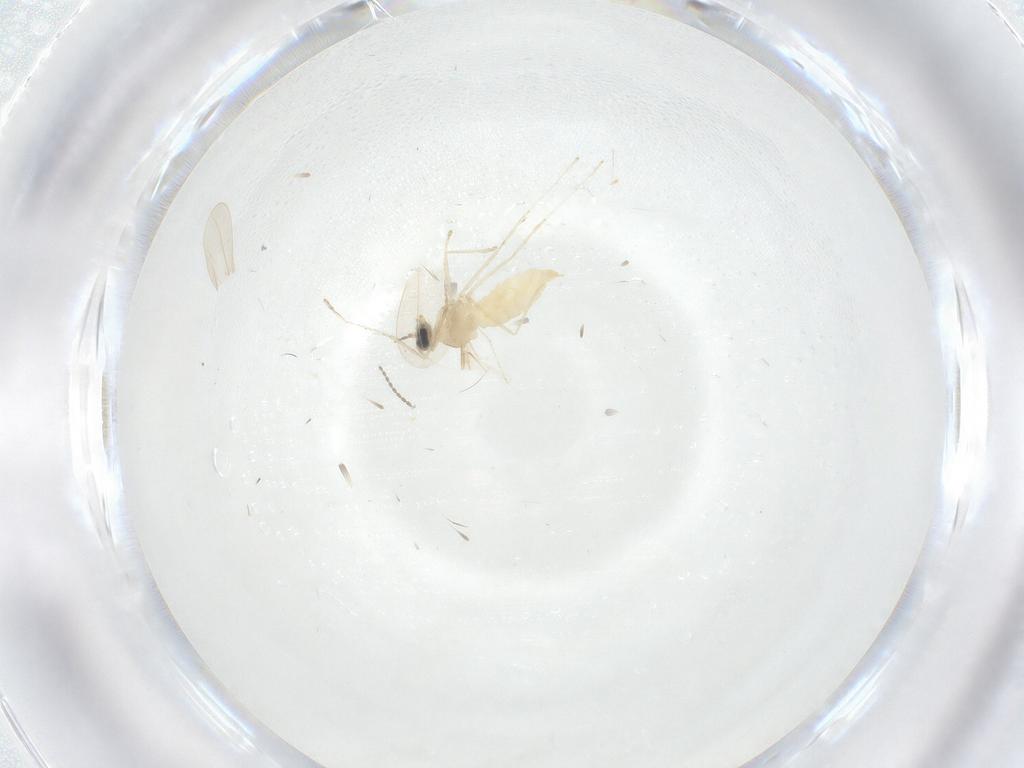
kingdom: Animalia
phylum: Arthropoda
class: Insecta
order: Diptera
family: Cecidomyiidae
